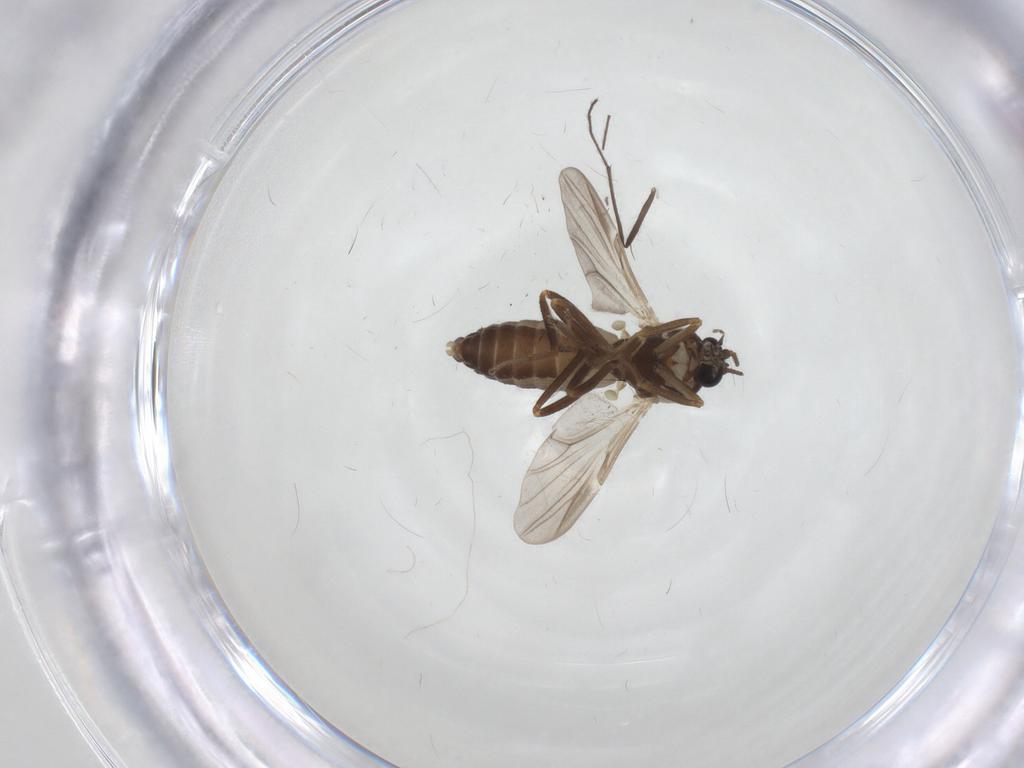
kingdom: Animalia
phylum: Arthropoda
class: Insecta
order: Diptera
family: Ceratopogonidae
